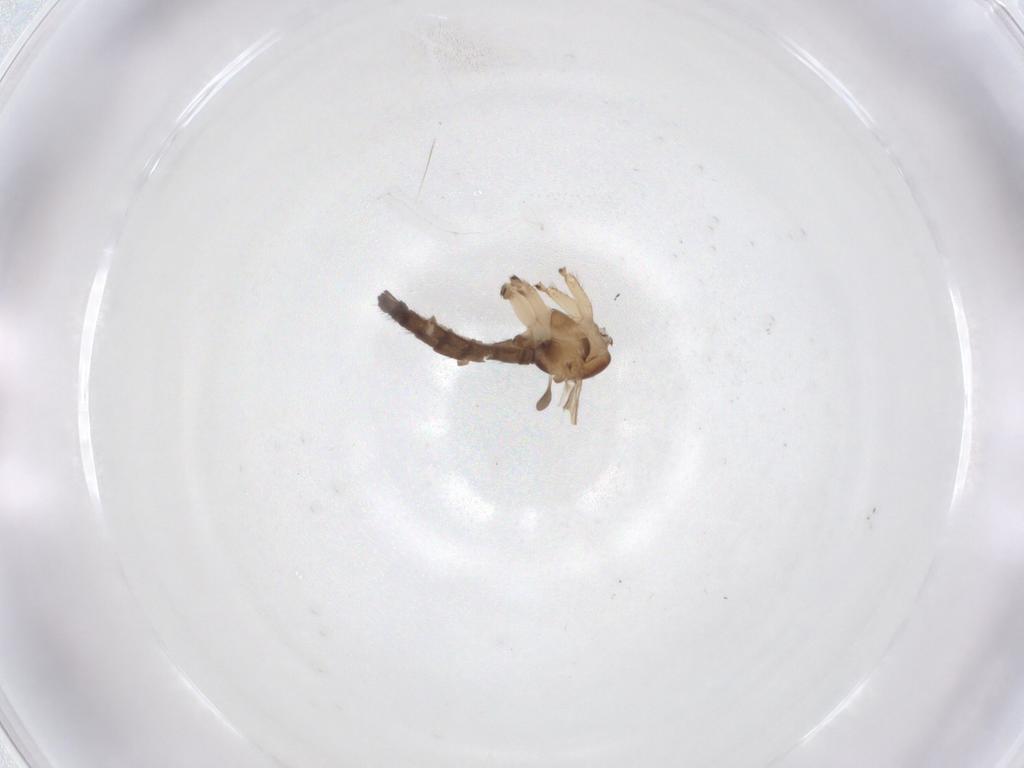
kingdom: Animalia
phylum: Arthropoda
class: Insecta
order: Diptera
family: Sciaridae
